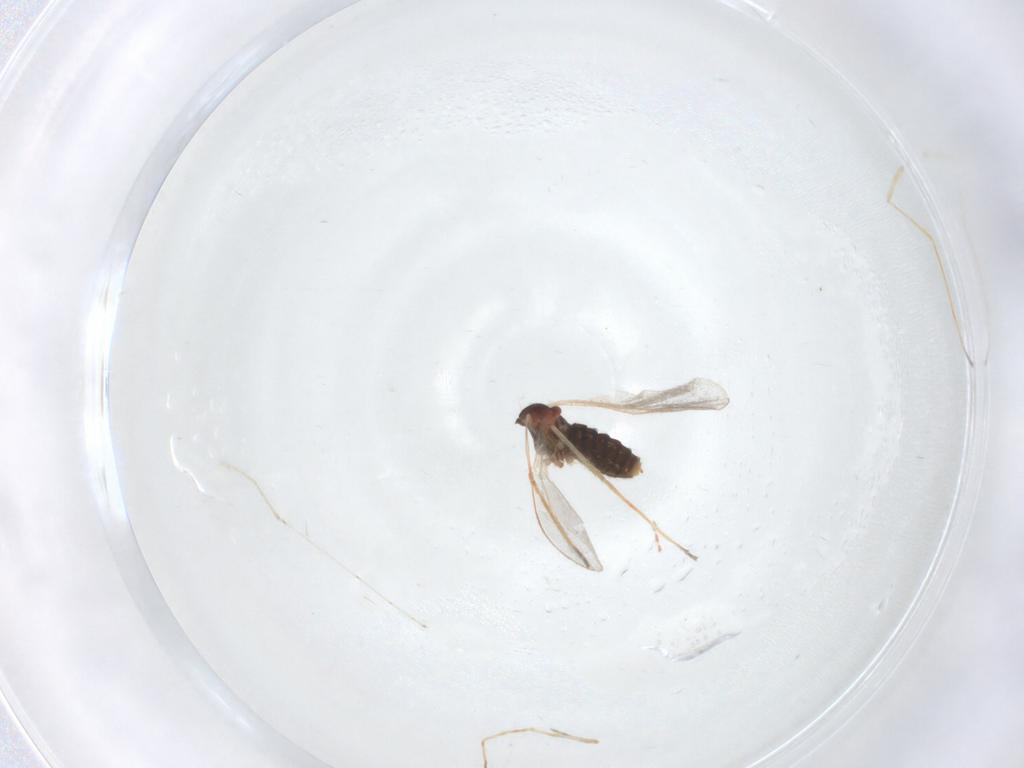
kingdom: Animalia
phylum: Arthropoda
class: Insecta
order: Diptera
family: Cecidomyiidae
